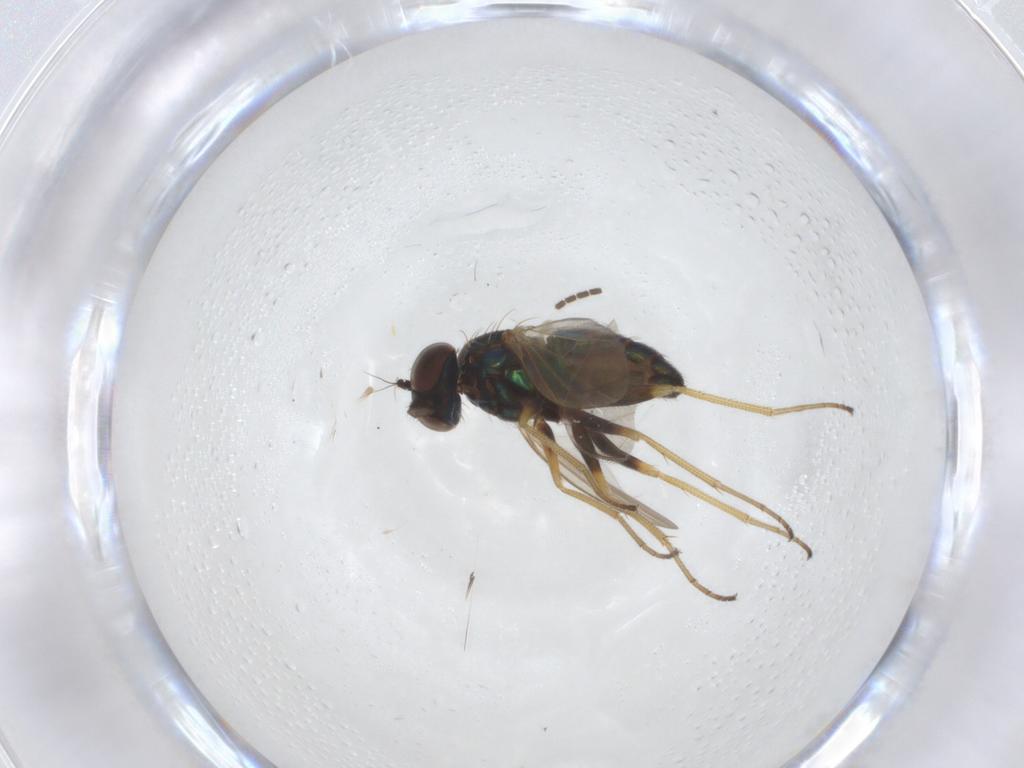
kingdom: Animalia
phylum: Arthropoda
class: Insecta
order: Diptera
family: Dolichopodidae
